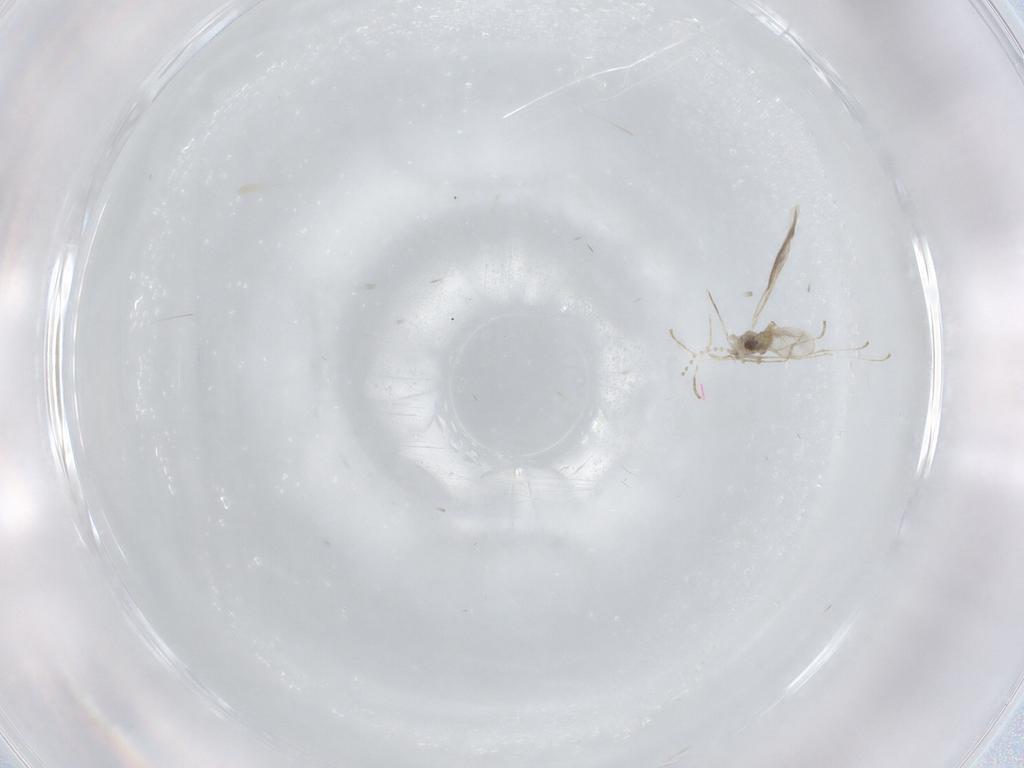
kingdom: Animalia
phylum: Arthropoda
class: Insecta
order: Diptera
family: Cecidomyiidae
